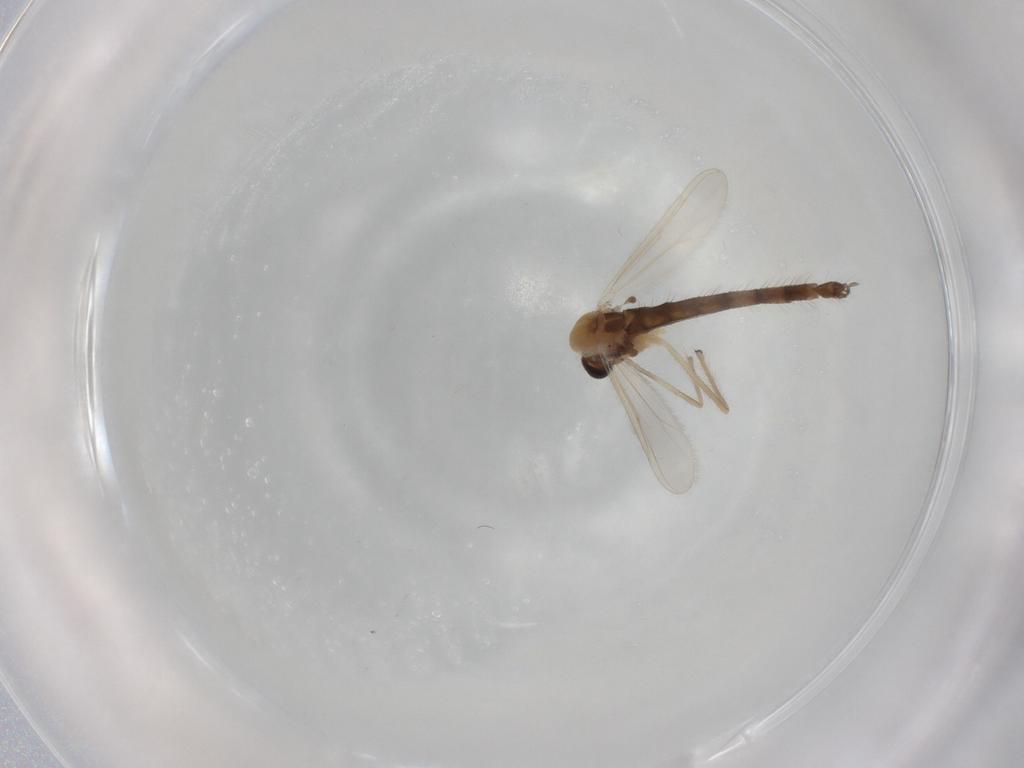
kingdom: Animalia
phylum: Arthropoda
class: Insecta
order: Diptera
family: Chironomidae
